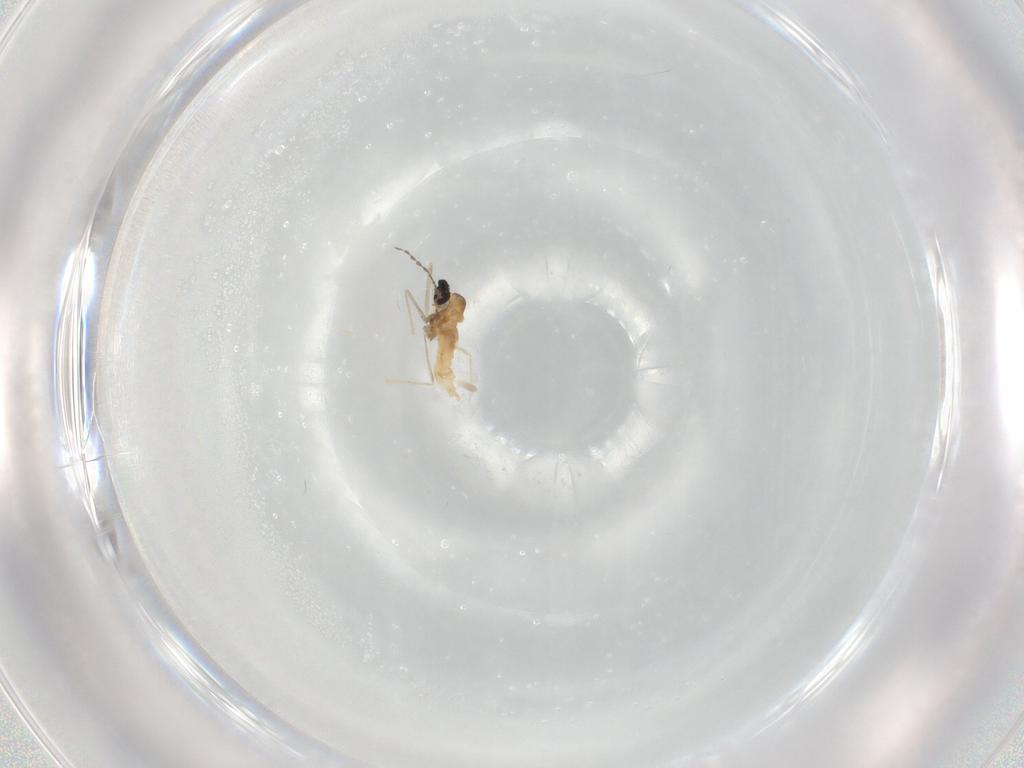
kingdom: Animalia
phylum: Arthropoda
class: Insecta
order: Diptera
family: Cecidomyiidae
